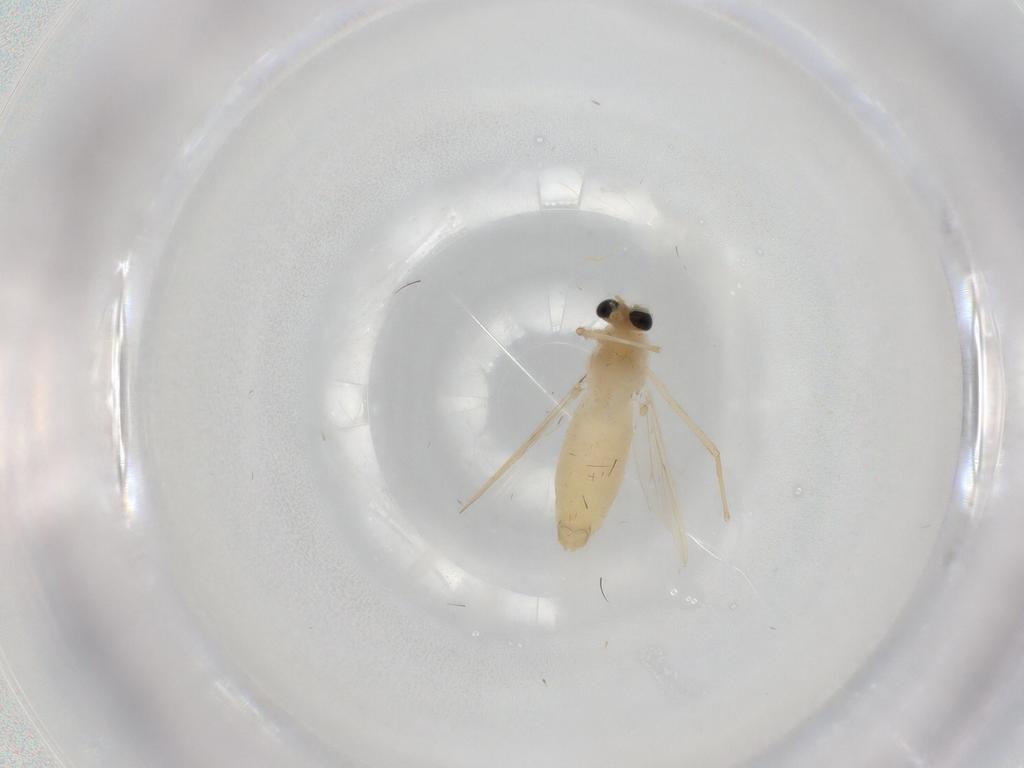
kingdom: Animalia
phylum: Arthropoda
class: Insecta
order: Diptera
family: Chironomidae
